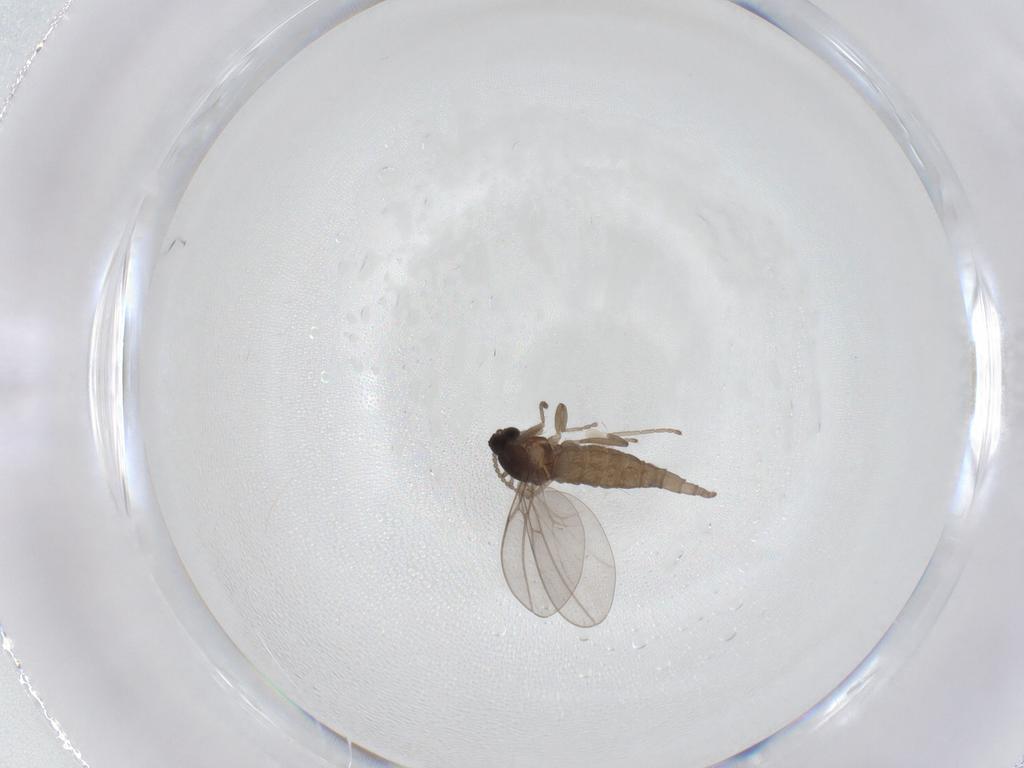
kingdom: Animalia
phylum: Arthropoda
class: Insecta
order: Diptera
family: Cecidomyiidae
